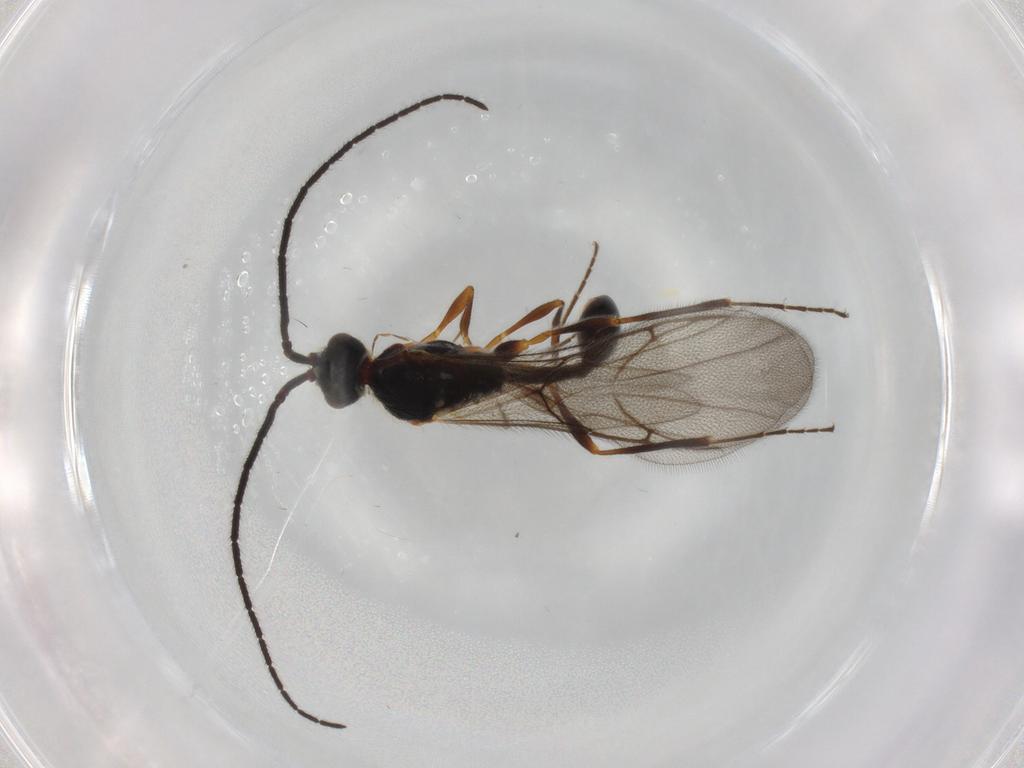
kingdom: Animalia
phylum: Arthropoda
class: Insecta
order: Hymenoptera
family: Diapriidae
